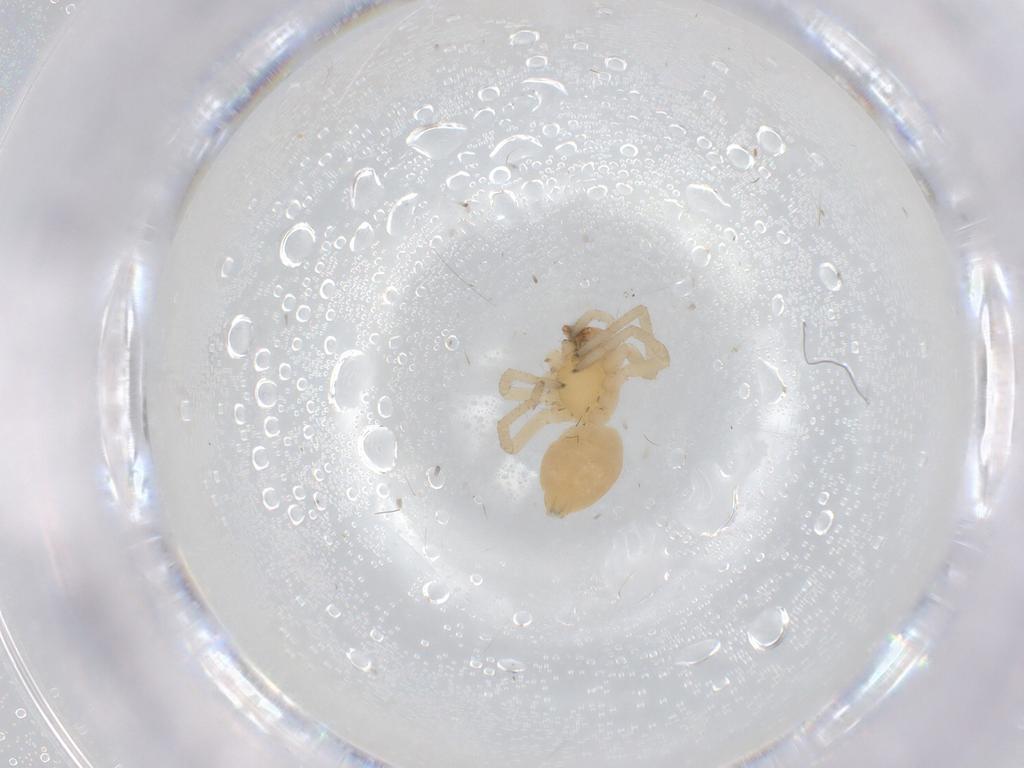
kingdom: Animalia
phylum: Arthropoda
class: Arachnida
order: Araneae
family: Cheiracanthiidae
